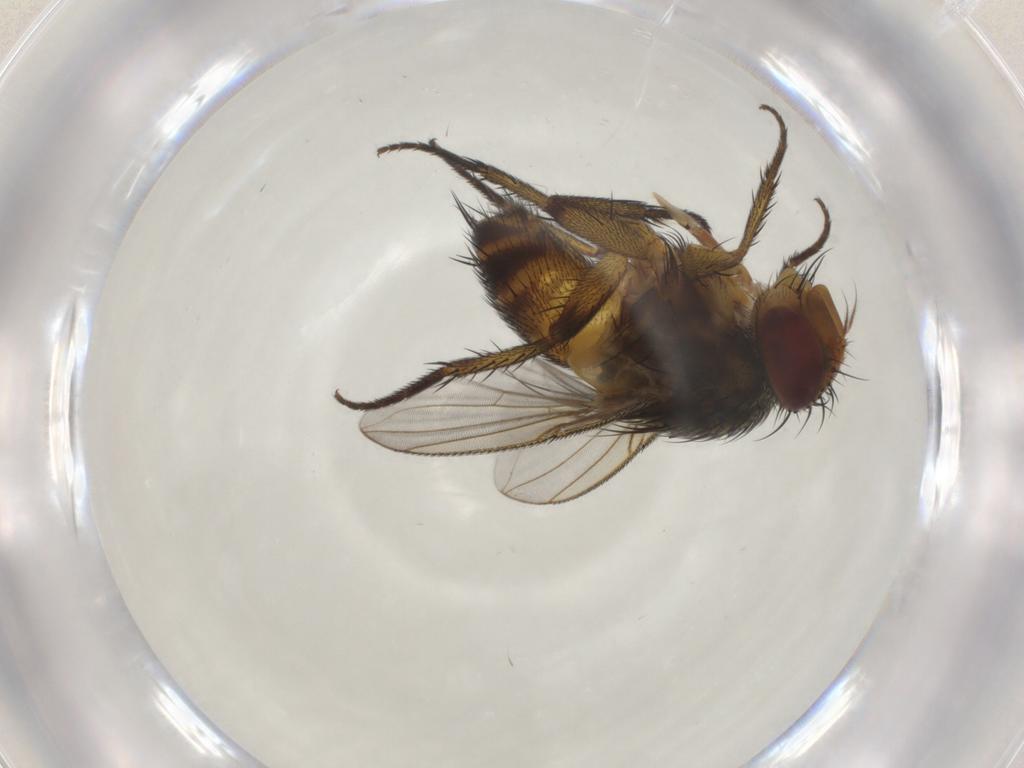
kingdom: Animalia
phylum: Arthropoda
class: Insecta
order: Diptera
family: Tachinidae
